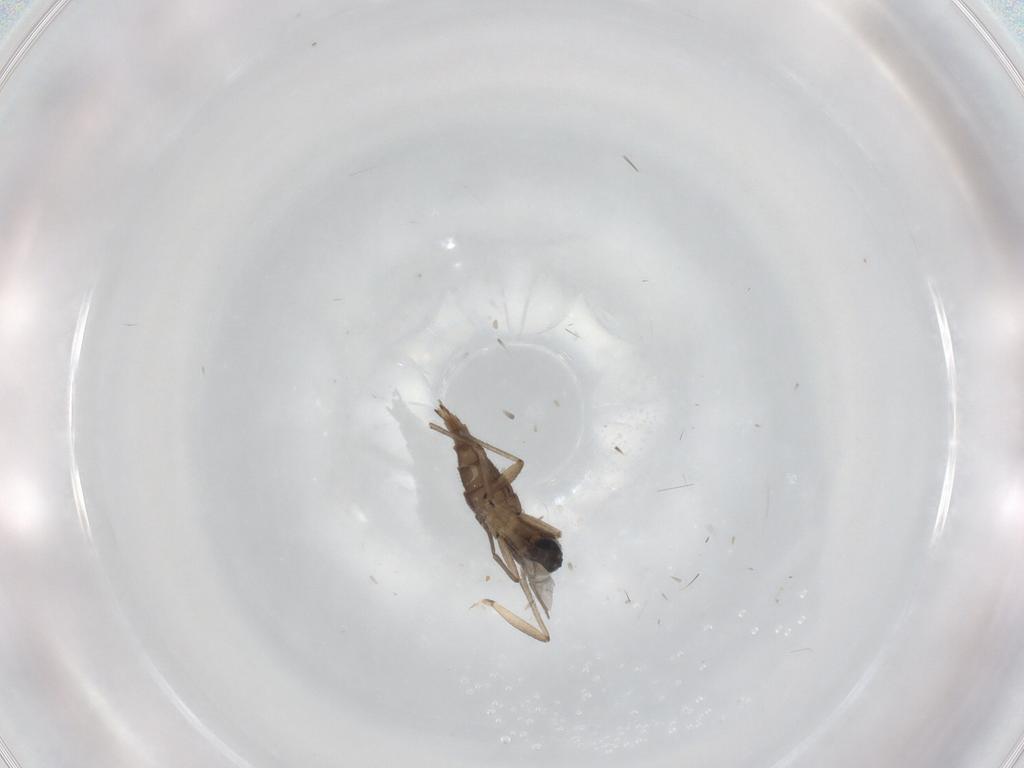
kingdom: Animalia
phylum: Arthropoda
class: Insecta
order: Diptera
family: Sciaridae
